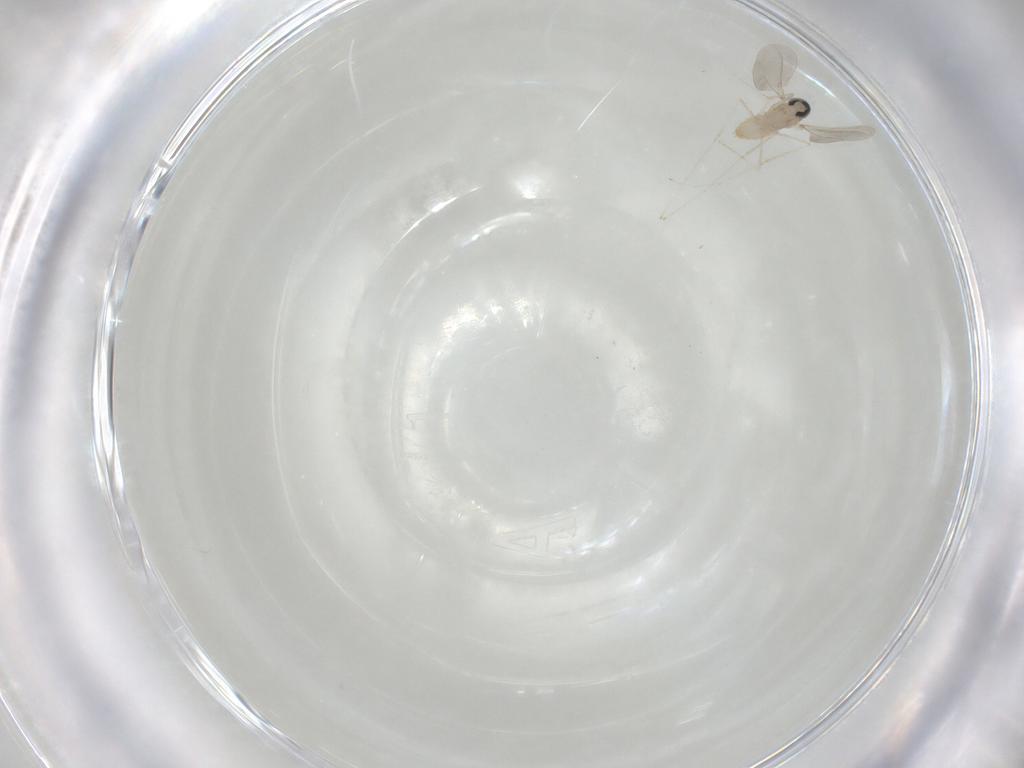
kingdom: Animalia
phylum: Arthropoda
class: Insecta
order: Diptera
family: Cecidomyiidae
